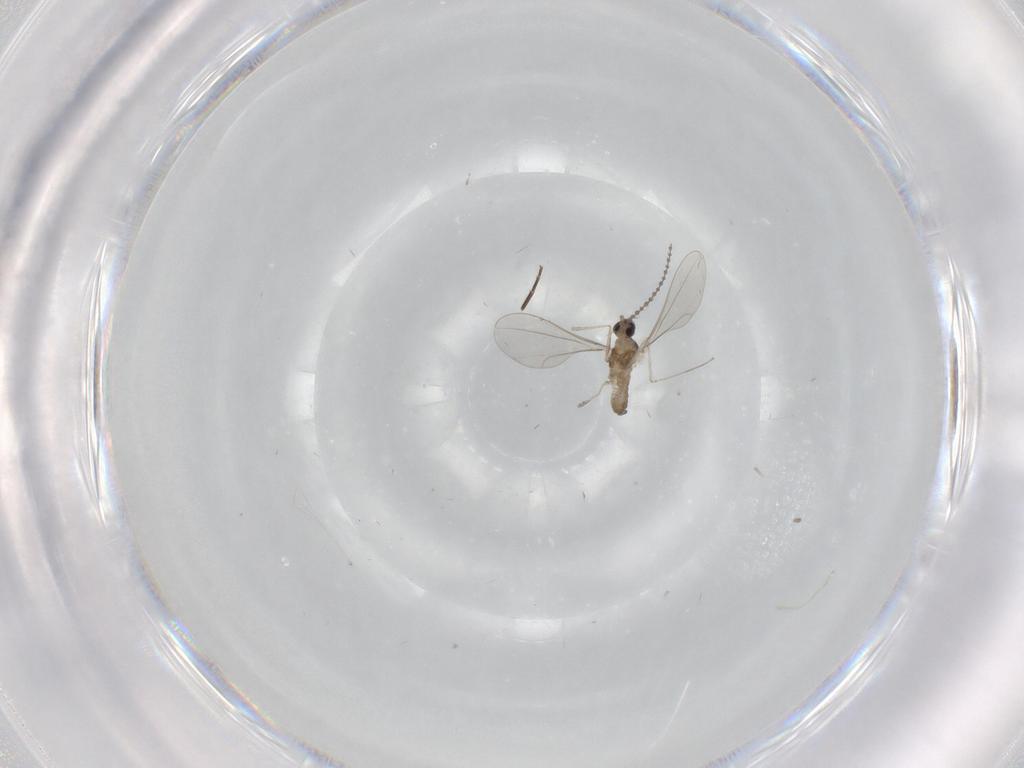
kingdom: Animalia
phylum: Arthropoda
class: Insecta
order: Diptera
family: Cecidomyiidae
